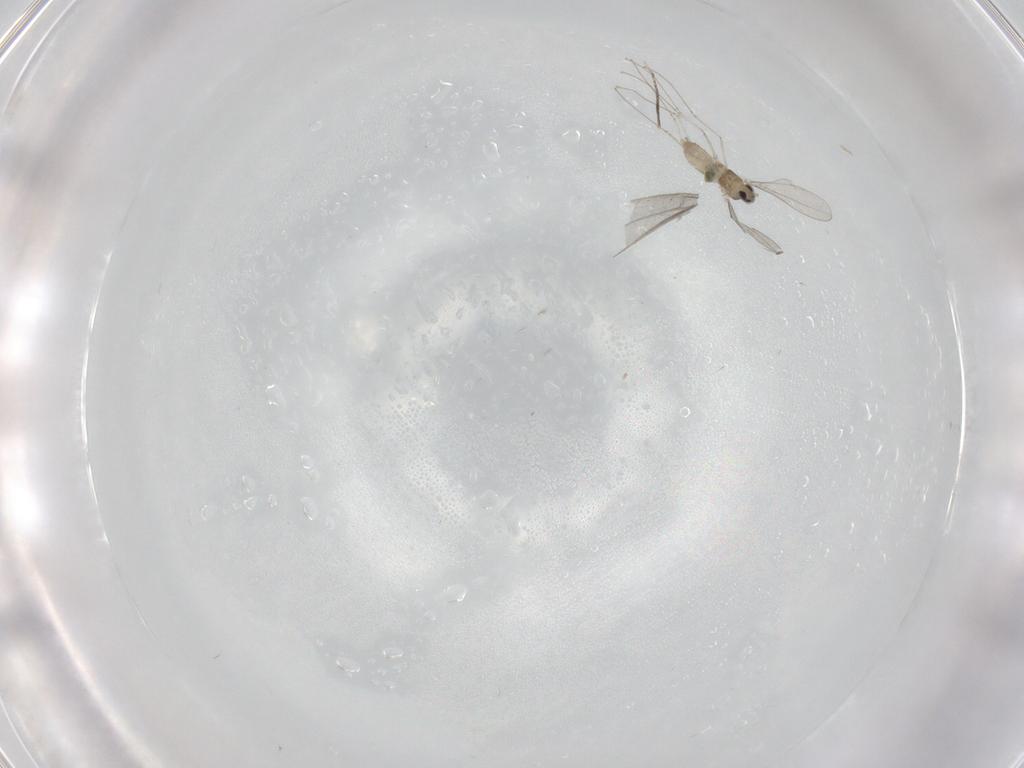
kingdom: Animalia
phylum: Arthropoda
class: Insecta
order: Diptera
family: Cecidomyiidae
